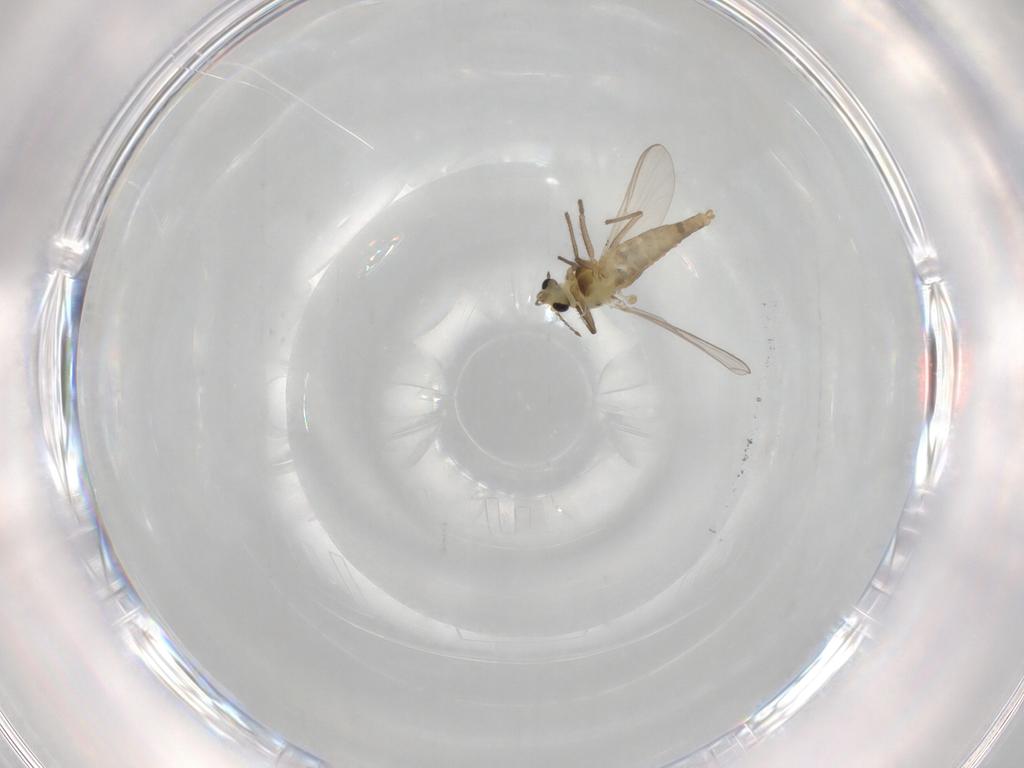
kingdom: Animalia
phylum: Arthropoda
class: Insecta
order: Diptera
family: Chironomidae
